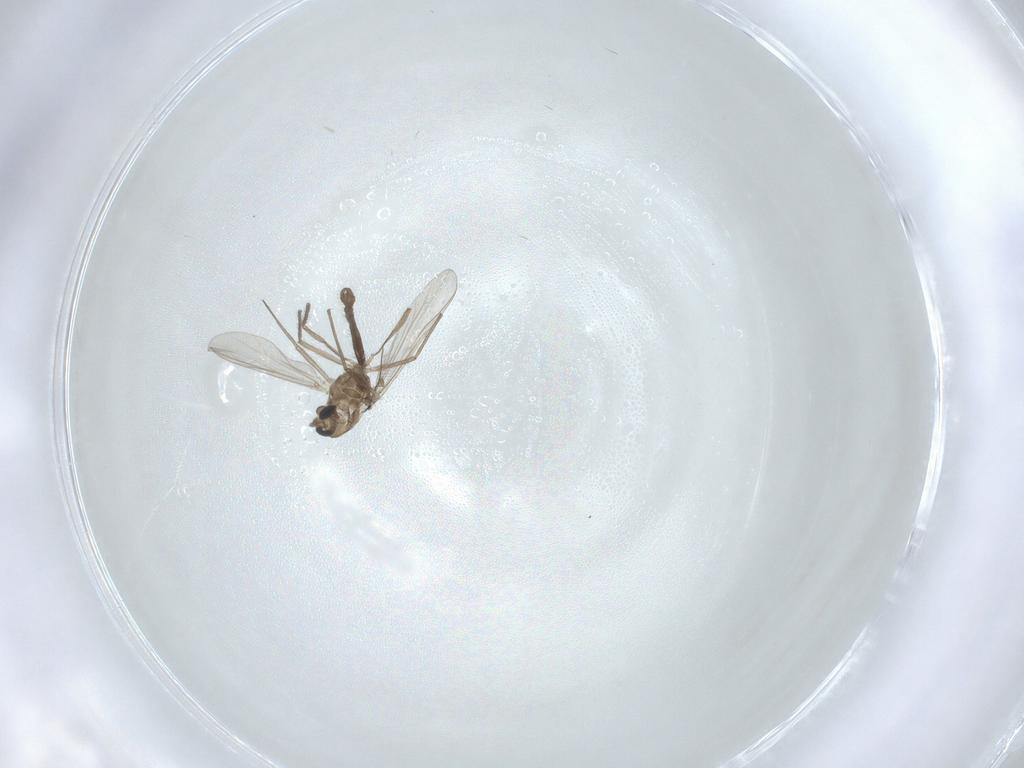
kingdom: Animalia
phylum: Arthropoda
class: Insecta
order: Diptera
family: Chironomidae
